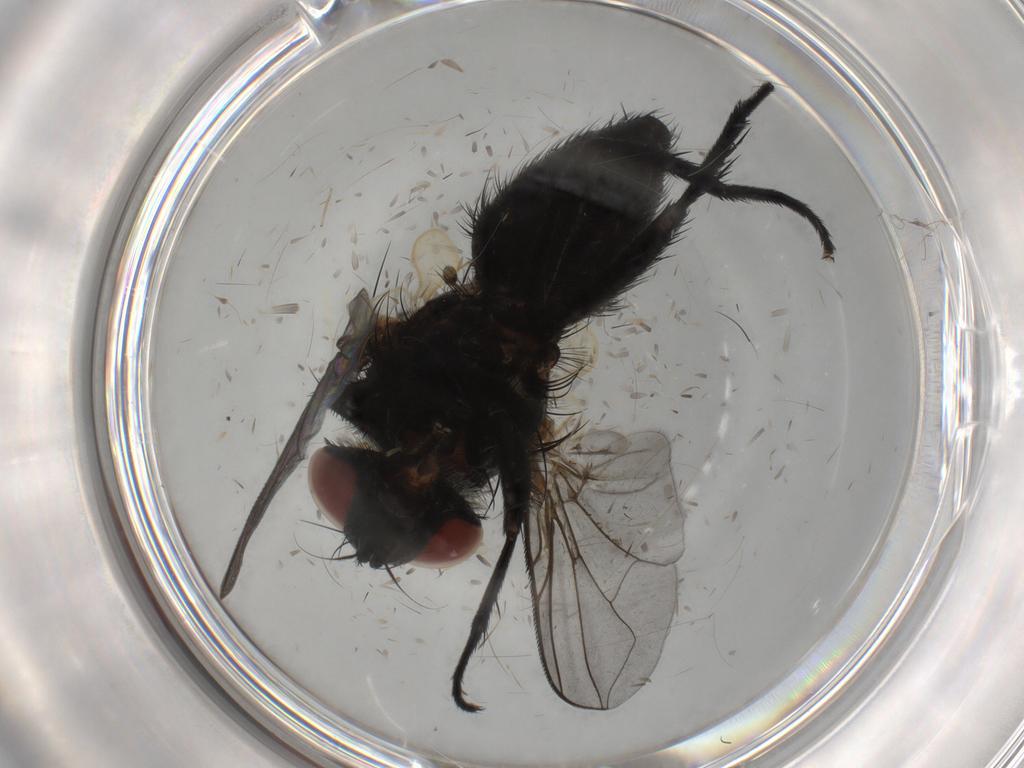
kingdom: Animalia
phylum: Arthropoda
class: Insecta
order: Diptera
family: Tachinidae
